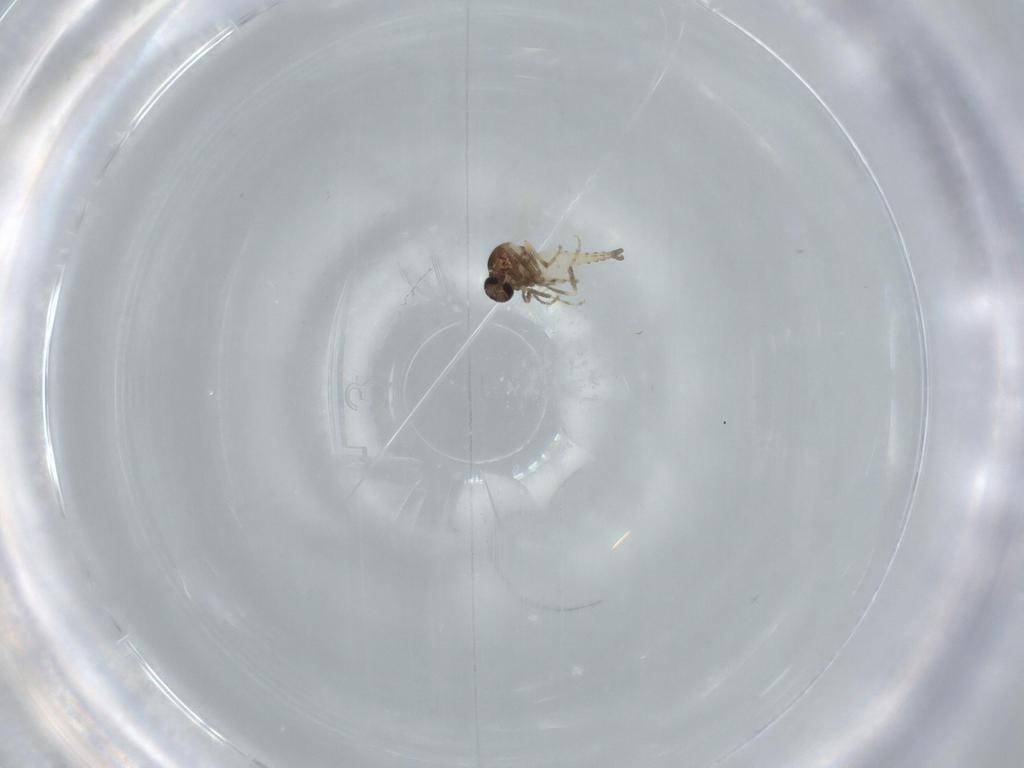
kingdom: Animalia
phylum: Arthropoda
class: Insecta
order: Diptera
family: Ceratopogonidae
